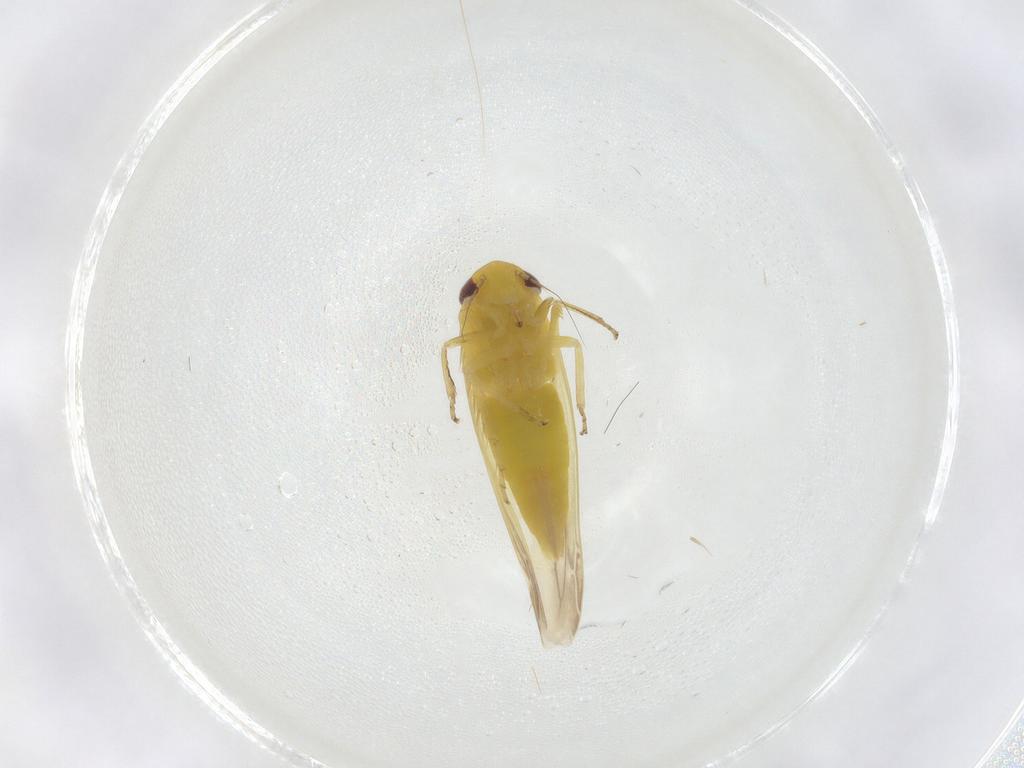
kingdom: Animalia
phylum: Arthropoda
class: Insecta
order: Hemiptera
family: Cicadellidae
